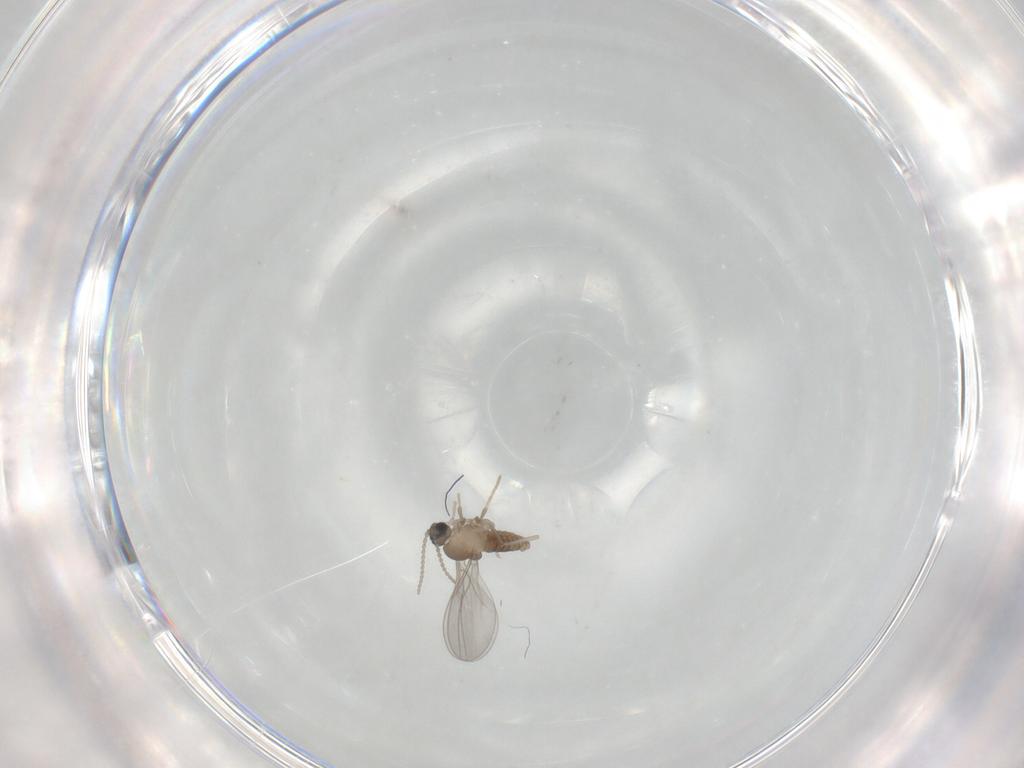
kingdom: Animalia
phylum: Arthropoda
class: Insecta
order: Diptera
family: Cecidomyiidae
